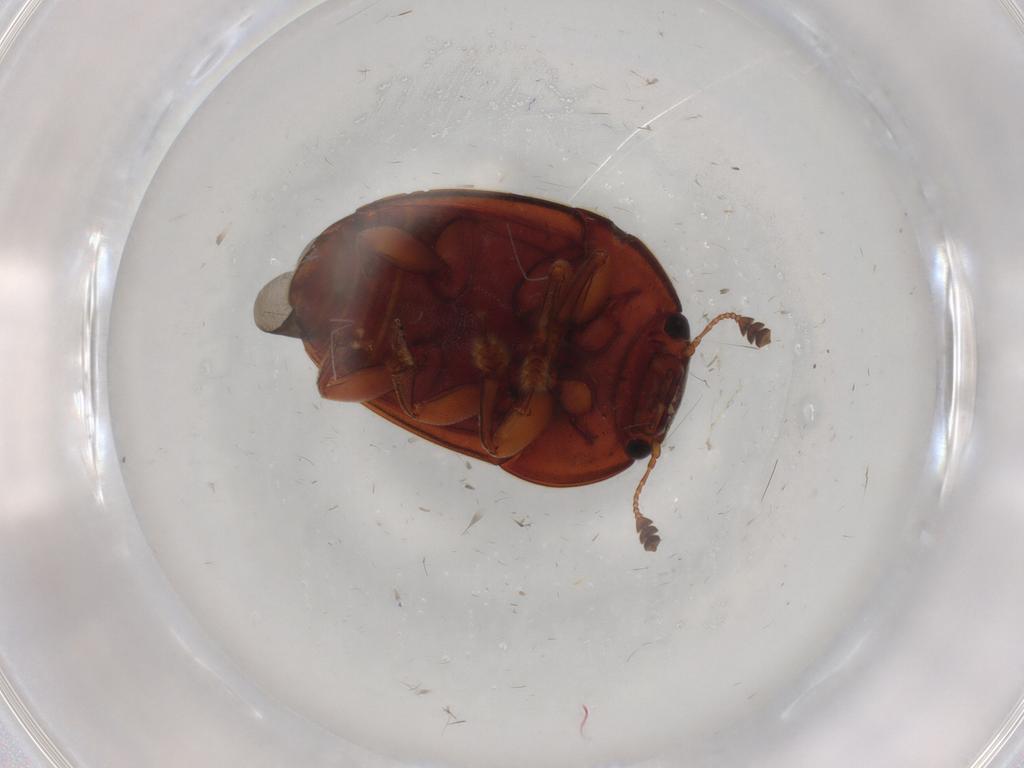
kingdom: Animalia
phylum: Arthropoda
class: Insecta
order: Coleoptera
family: Nitidulidae
